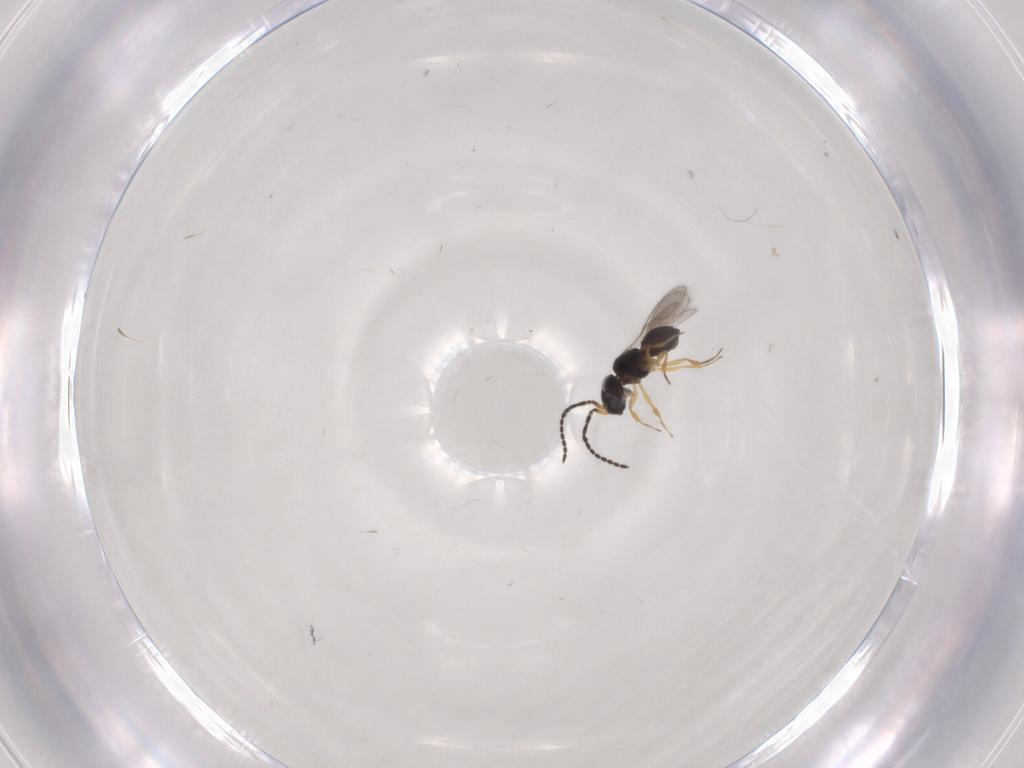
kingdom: Animalia
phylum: Arthropoda
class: Insecta
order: Hymenoptera
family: Scelionidae
